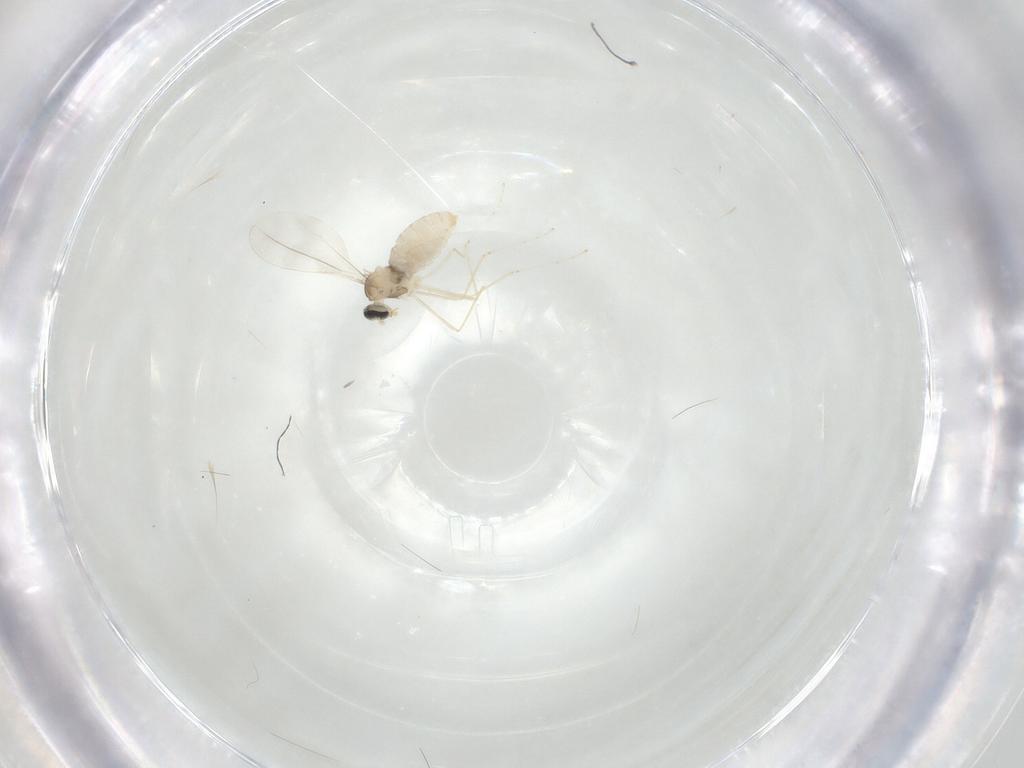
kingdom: Animalia
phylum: Arthropoda
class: Insecta
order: Diptera
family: Cecidomyiidae
